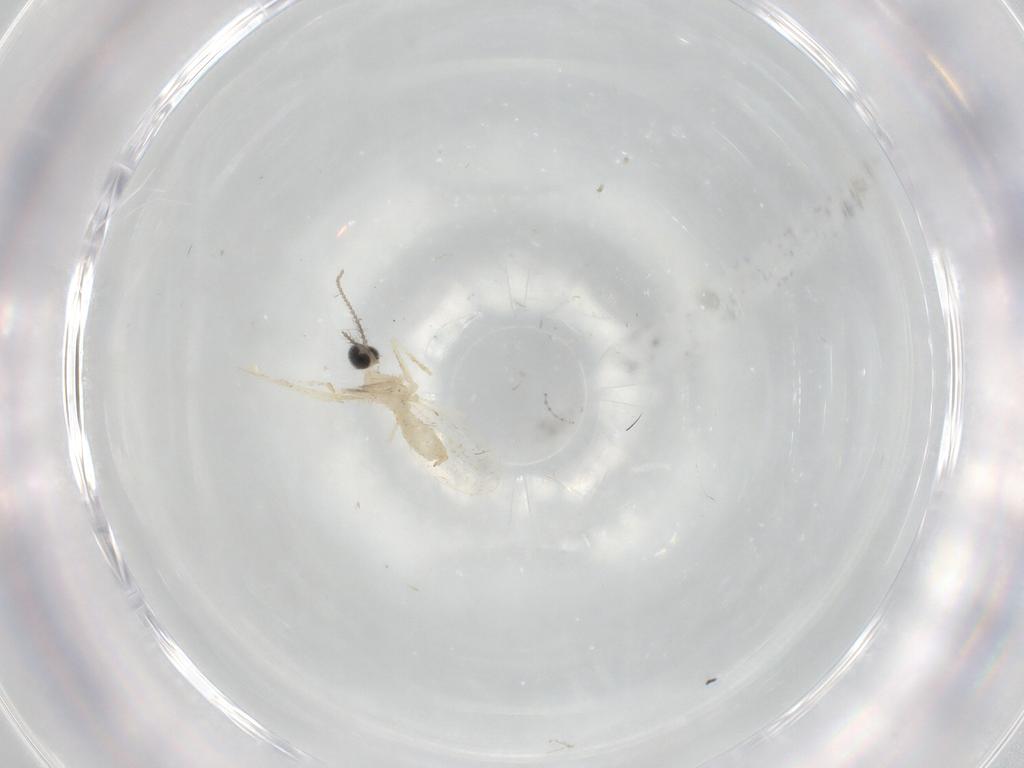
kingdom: Animalia
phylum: Arthropoda
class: Insecta
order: Diptera
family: Cecidomyiidae
